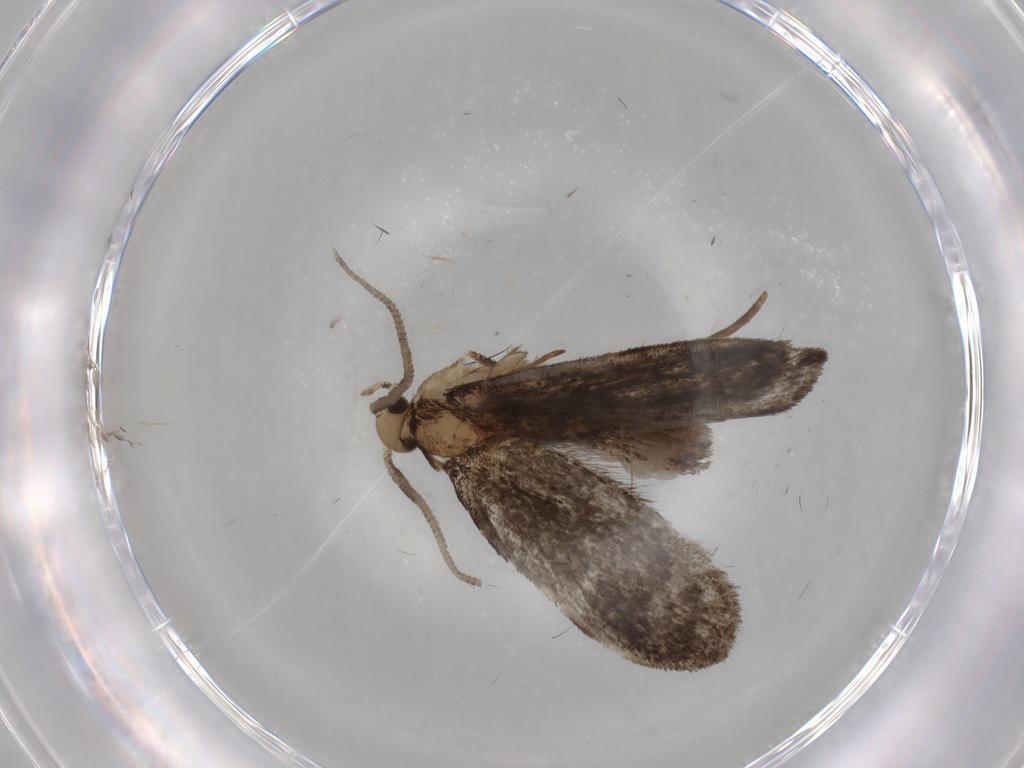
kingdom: Animalia
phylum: Arthropoda
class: Insecta
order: Lepidoptera
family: Dryadaulidae
